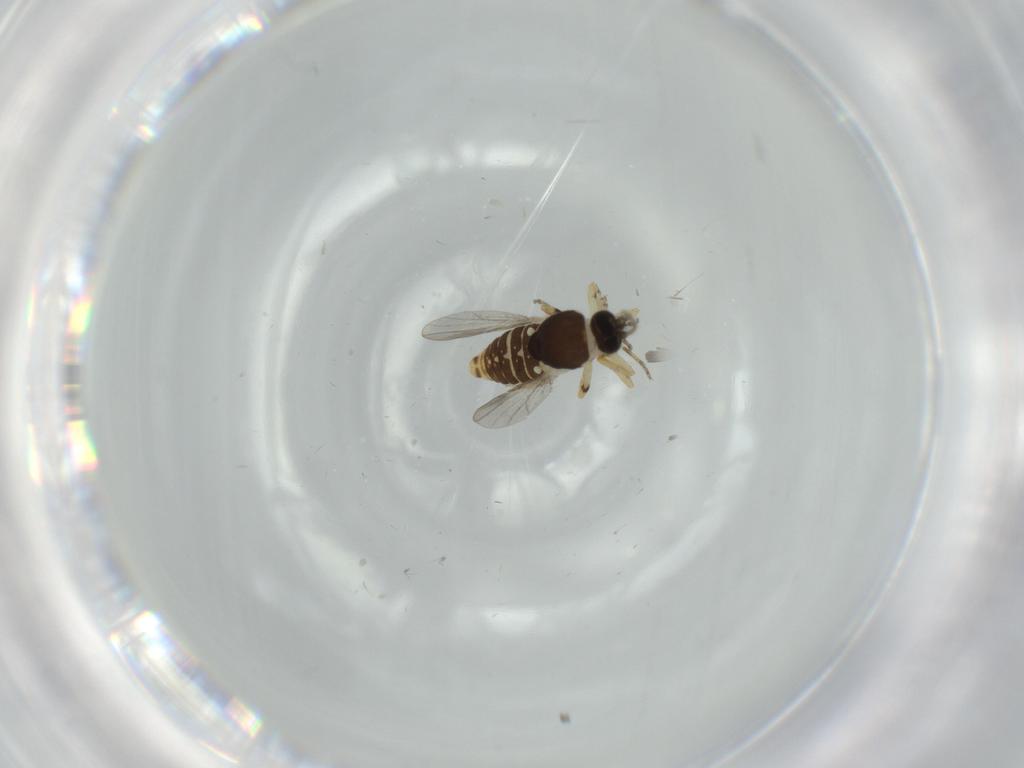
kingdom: Animalia
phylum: Arthropoda
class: Insecta
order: Diptera
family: Ceratopogonidae
